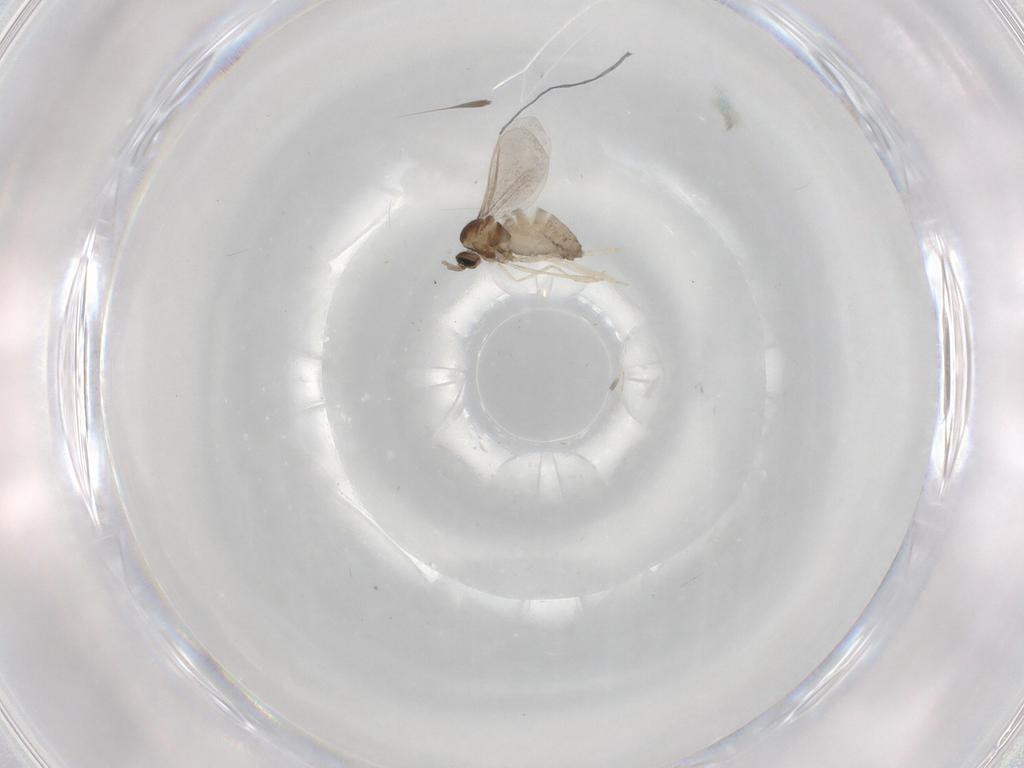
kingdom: Animalia
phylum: Arthropoda
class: Insecta
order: Diptera
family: Cecidomyiidae
